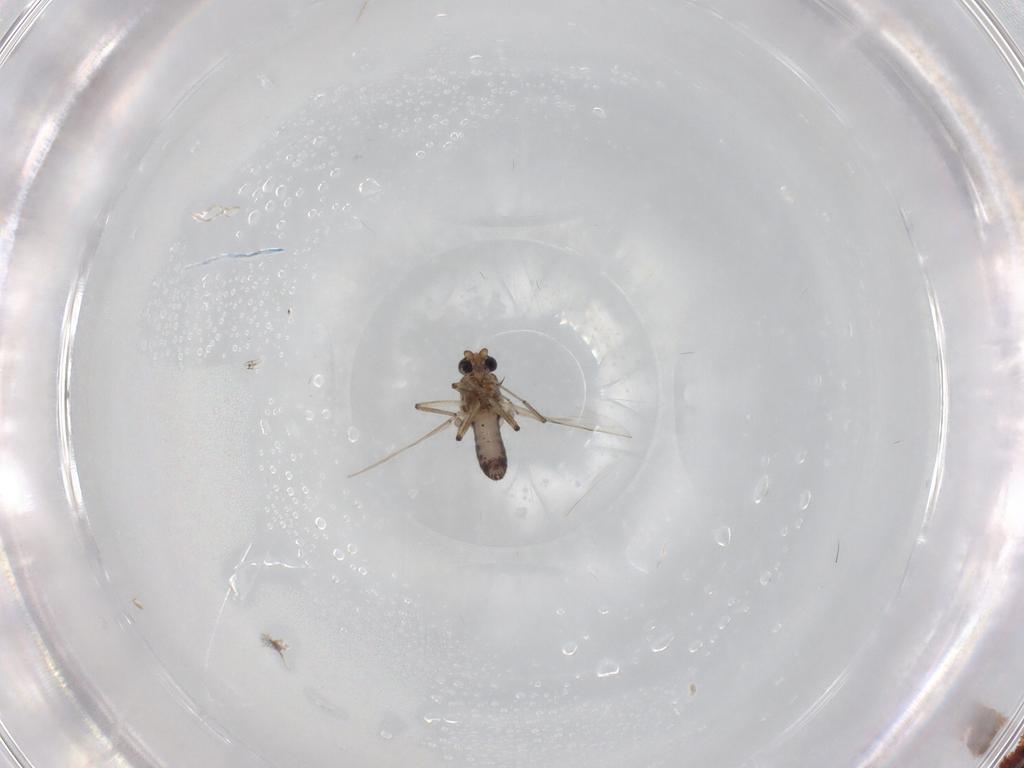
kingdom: Animalia
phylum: Arthropoda
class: Insecta
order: Diptera
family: Ceratopogonidae
